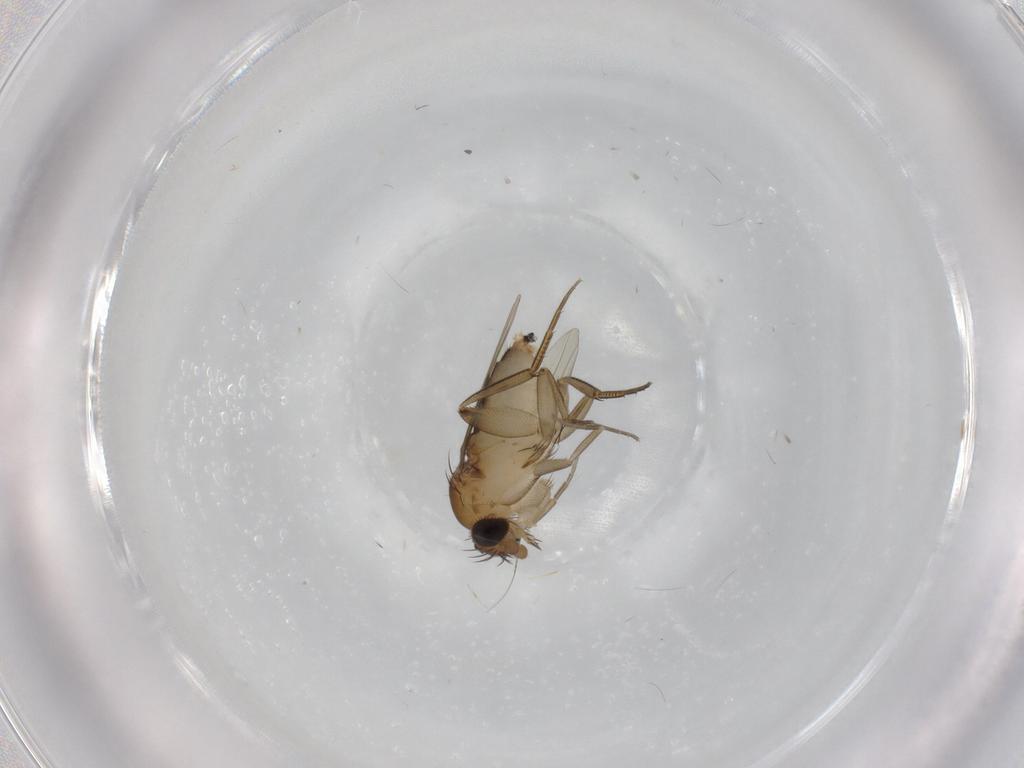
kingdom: Animalia
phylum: Arthropoda
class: Insecta
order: Diptera
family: Phoridae
